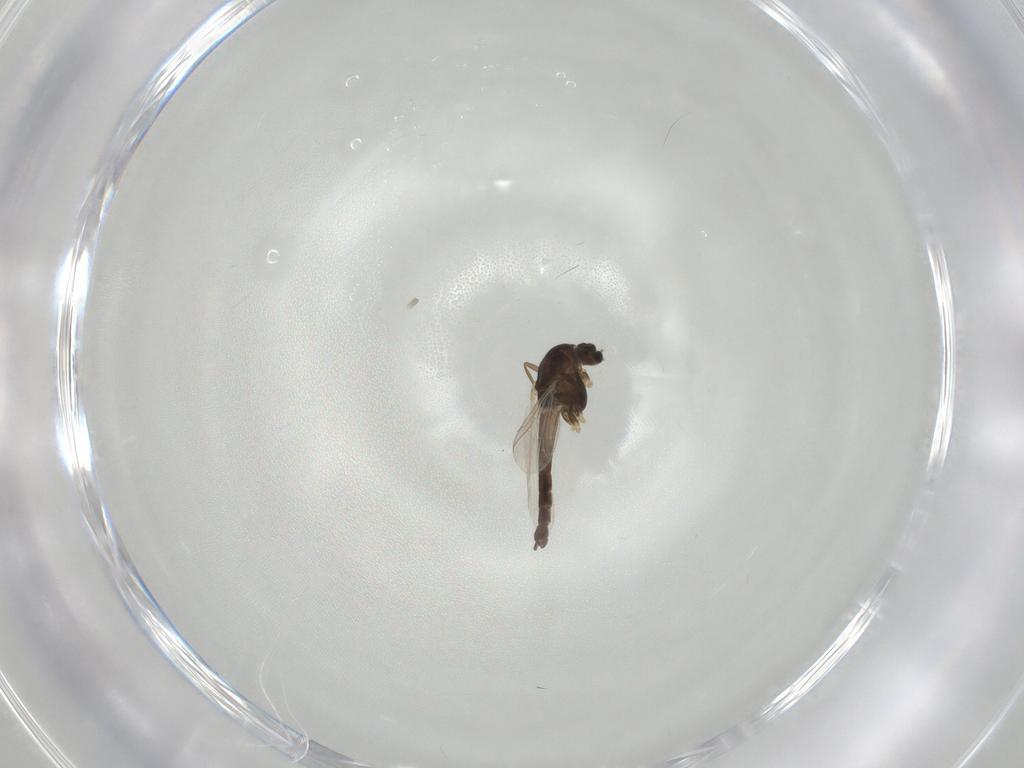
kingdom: Animalia
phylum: Arthropoda
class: Insecta
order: Diptera
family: Chironomidae
